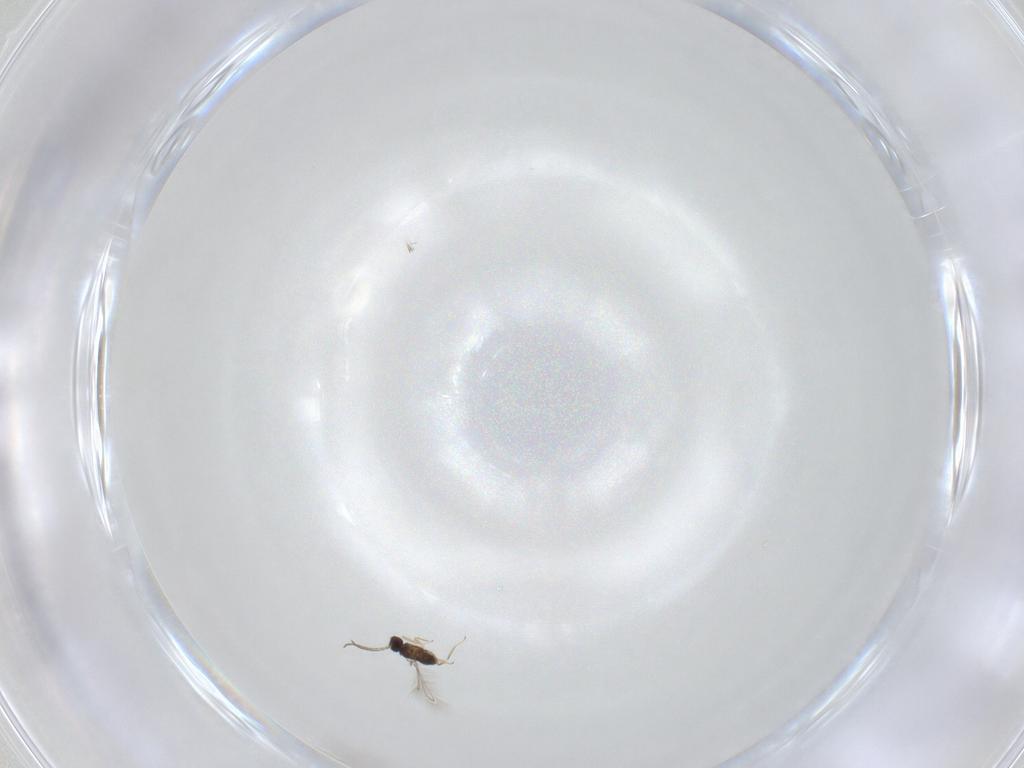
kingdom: Animalia
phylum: Arthropoda
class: Insecta
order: Hymenoptera
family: Mymaridae
